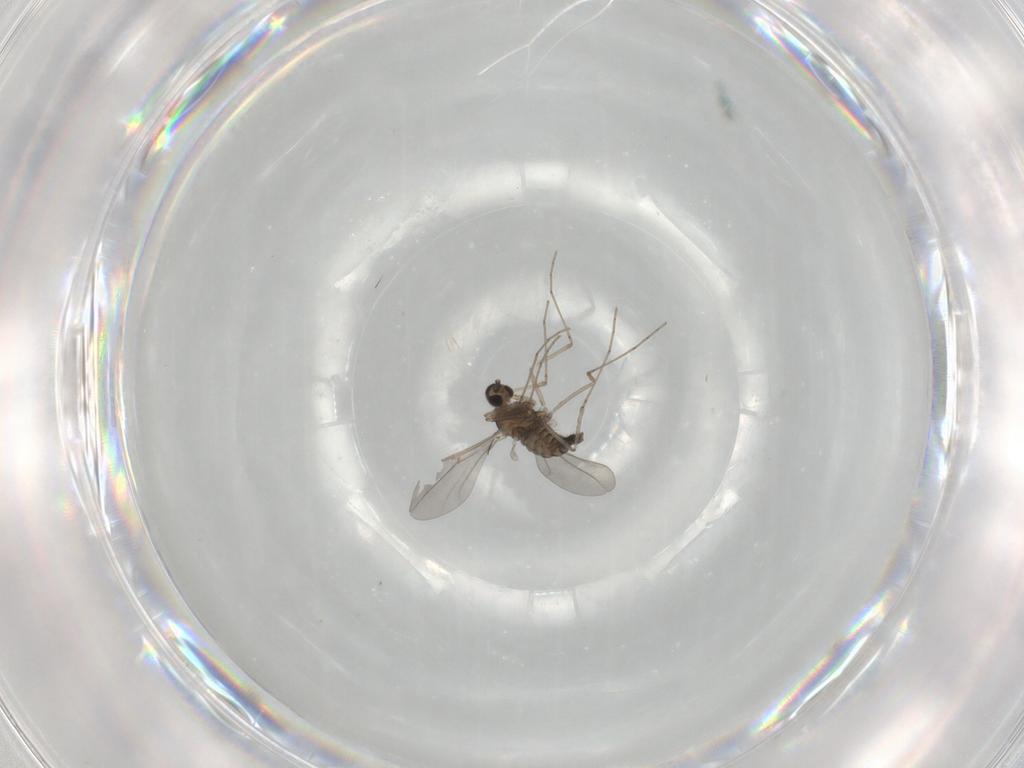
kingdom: Animalia
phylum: Arthropoda
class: Insecta
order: Diptera
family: Cecidomyiidae
